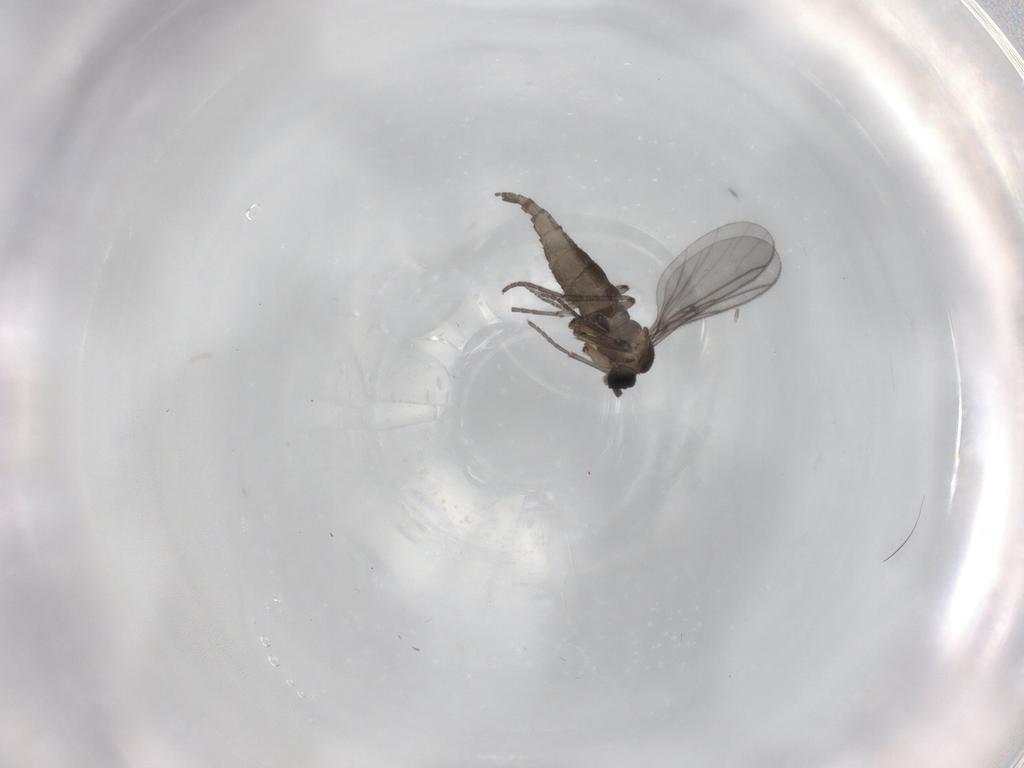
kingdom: Animalia
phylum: Arthropoda
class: Insecta
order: Diptera
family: Sciaridae
